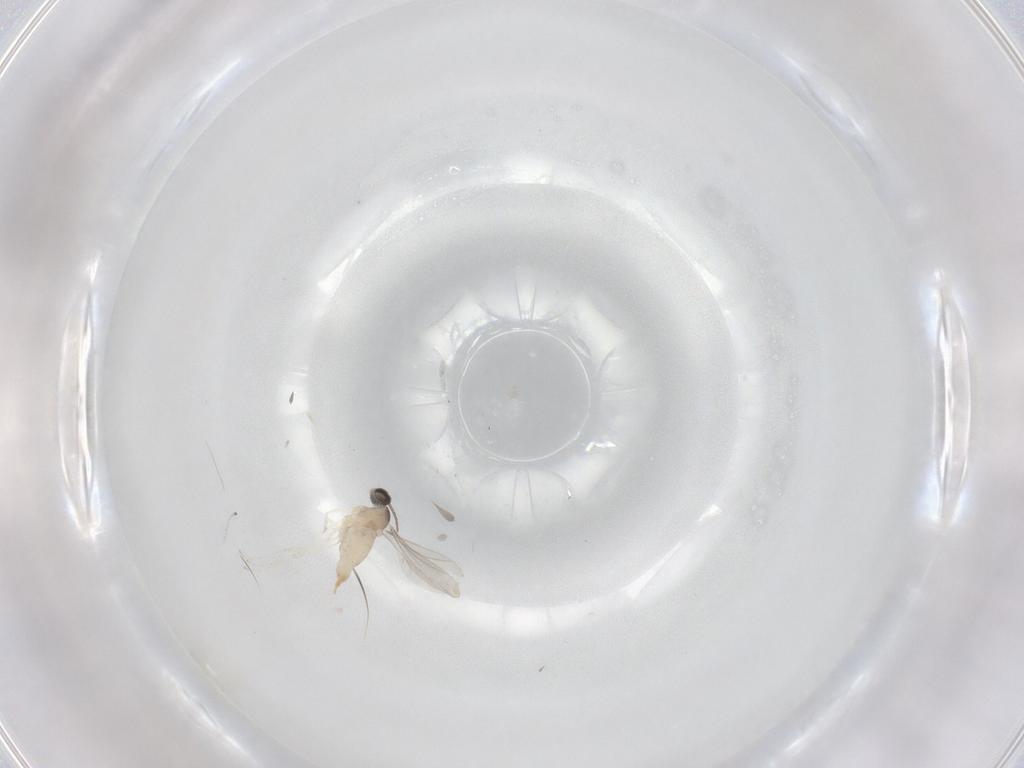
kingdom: Animalia
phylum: Arthropoda
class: Insecta
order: Diptera
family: Cecidomyiidae
